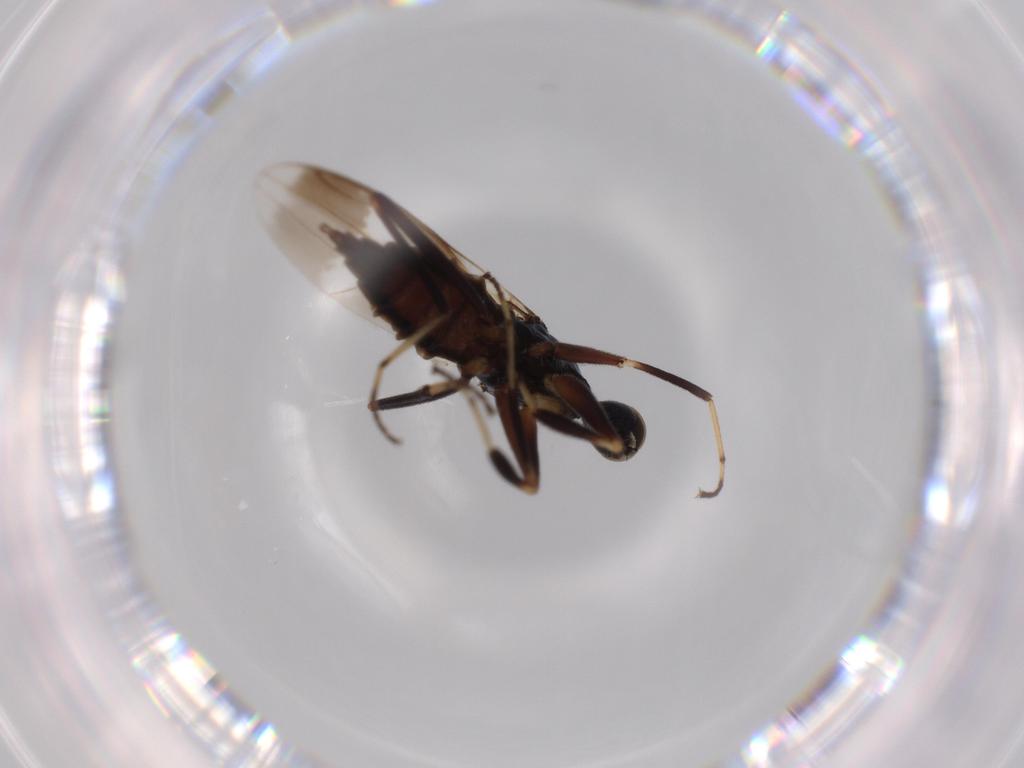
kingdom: Animalia
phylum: Arthropoda
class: Insecta
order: Diptera
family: Hybotidae
